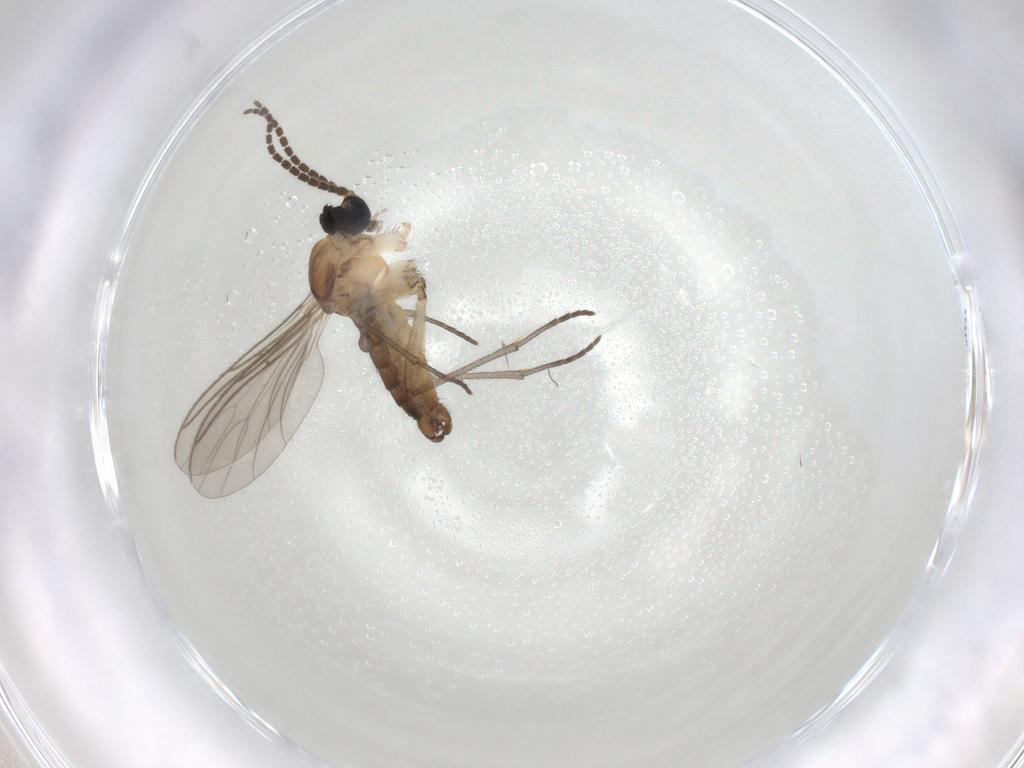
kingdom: Animalia
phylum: Arthropoda
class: Insecta
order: Diptera
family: Sciaridae
